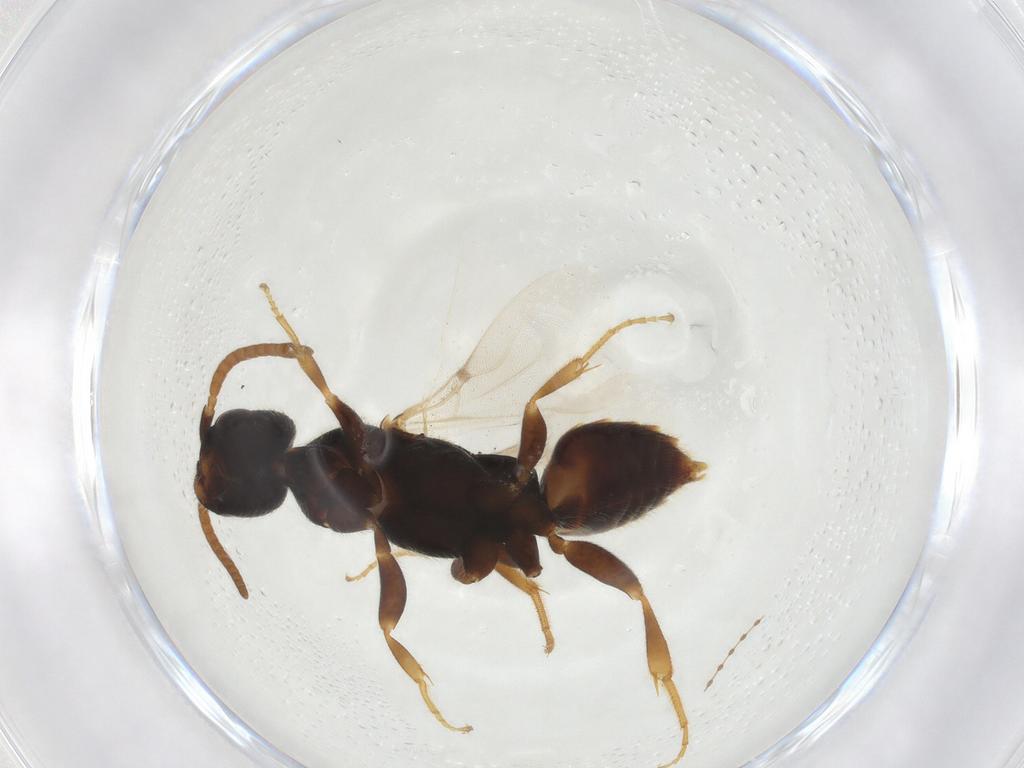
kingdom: Animalia
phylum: Arthropoda
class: Insecta
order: Hymenoptera
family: Bethylidae
